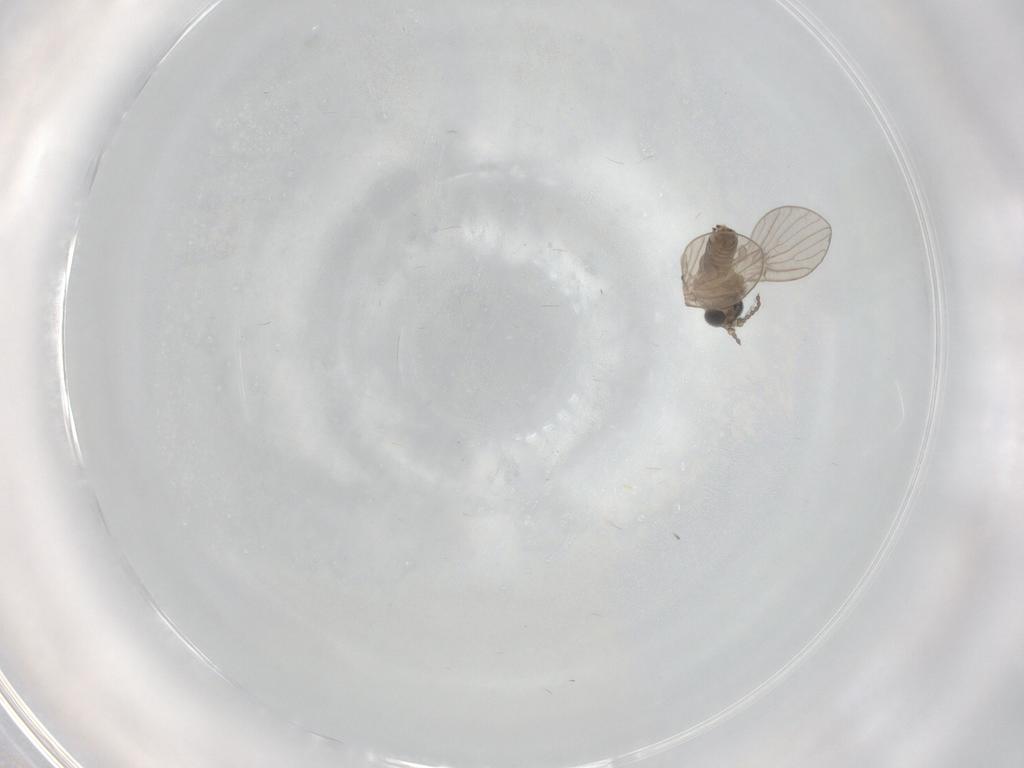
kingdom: Animalia
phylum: Arthropoda
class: Insecta
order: Diptera
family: Psychodidae
